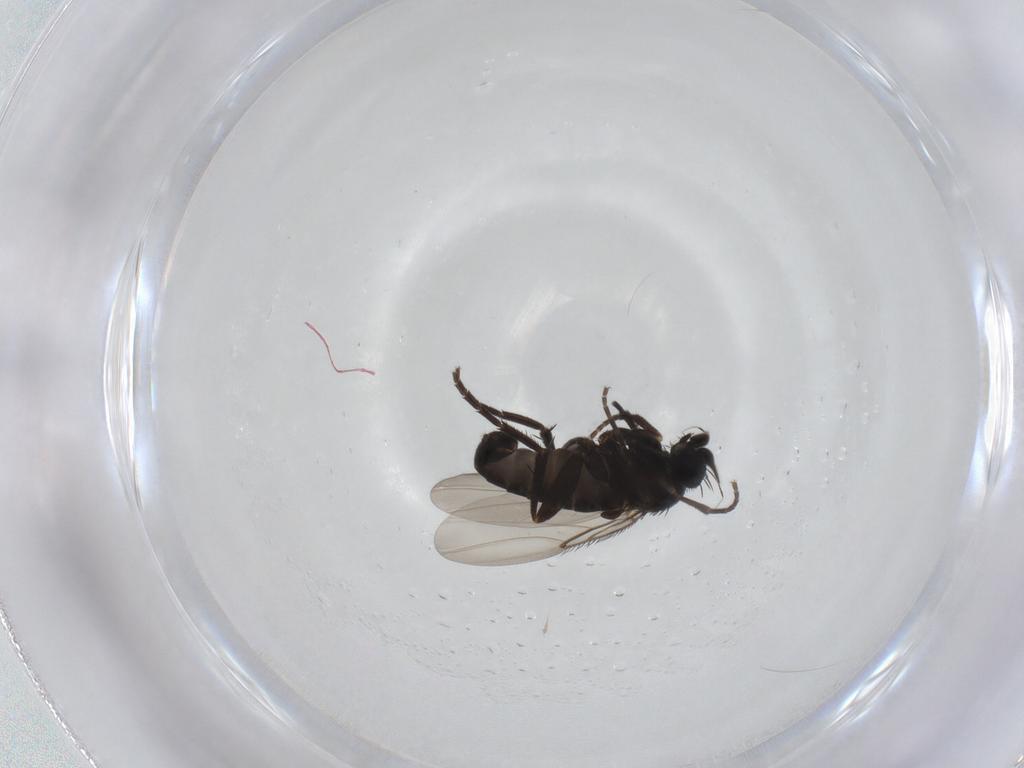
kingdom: Animalia
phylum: Arthropoda
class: Insecta
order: Diptera
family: Phoridae
